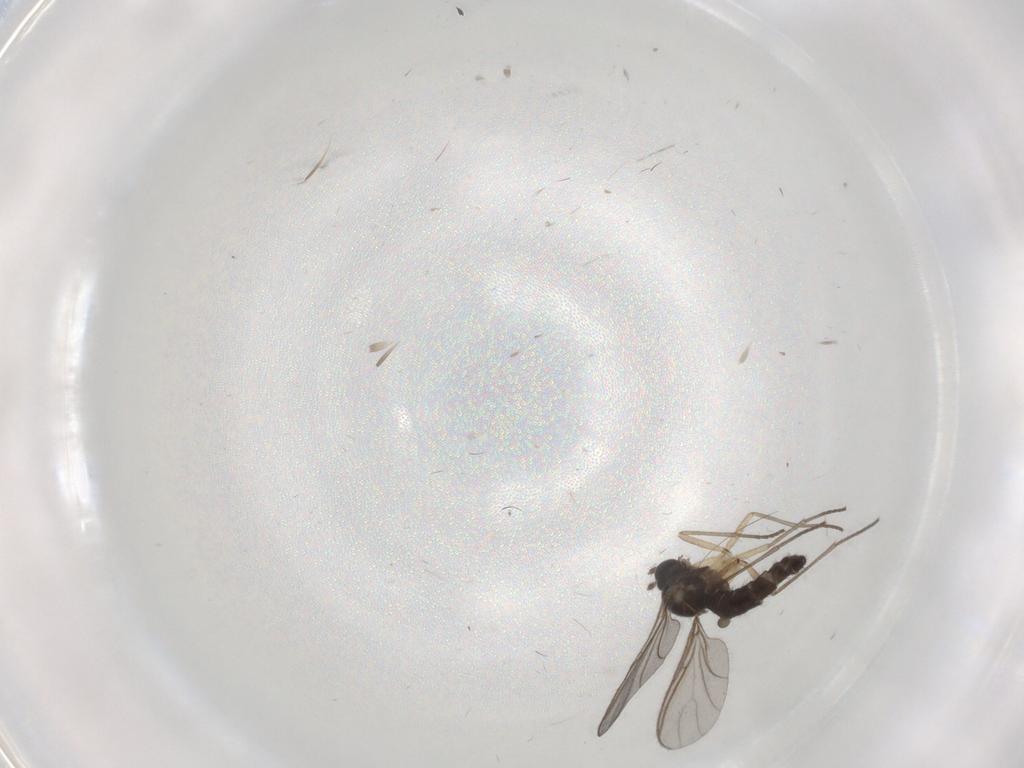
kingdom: Animalia
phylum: Arthropoda
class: Insecta
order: Diptera
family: Sciaridae
